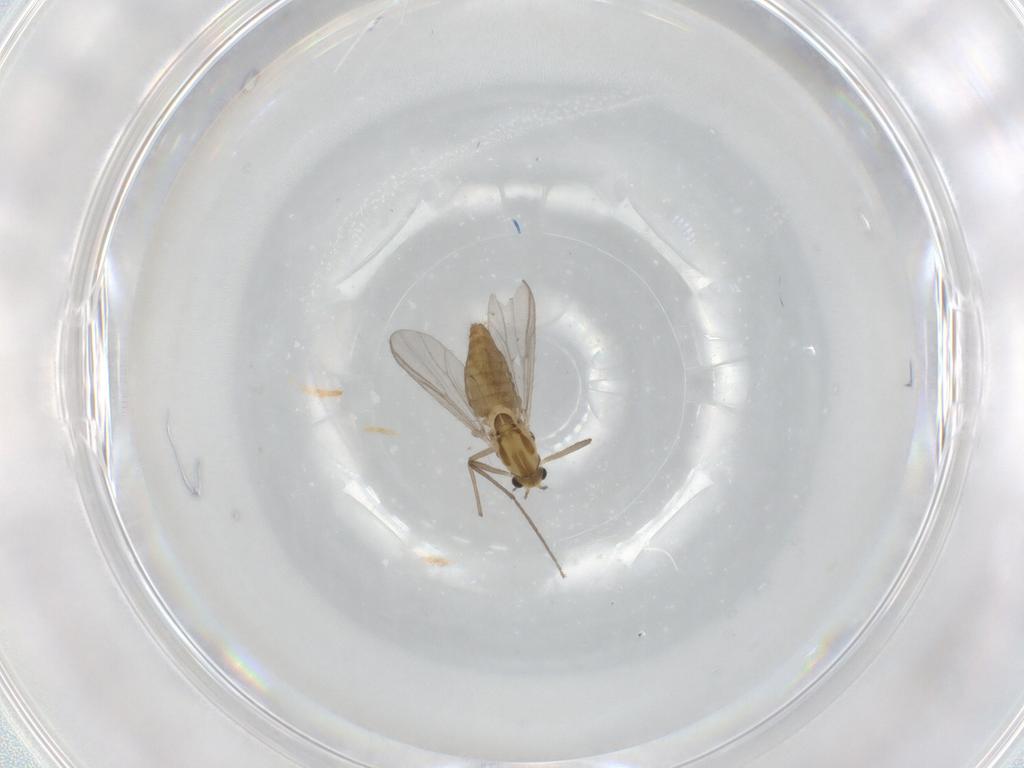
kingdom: Animalia
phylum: Arthropoda
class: Insecta
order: Diptera
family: Chironomidae
